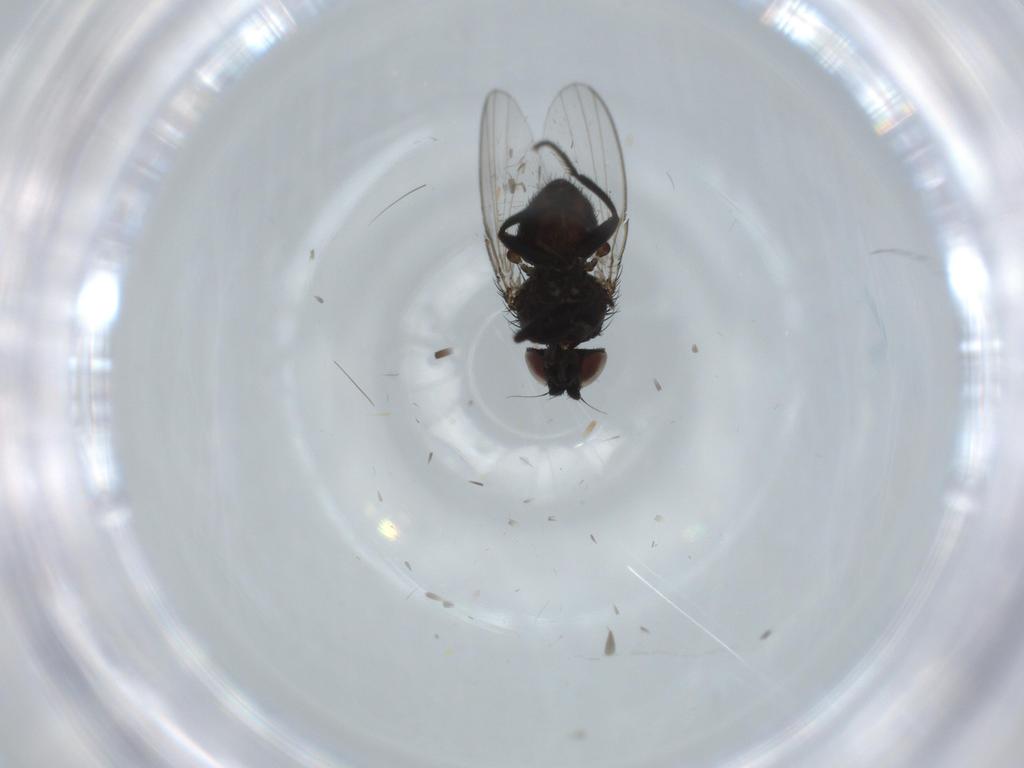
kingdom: Animalia
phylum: Arthropoda
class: Insecta
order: Diptera
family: Milichiidae
